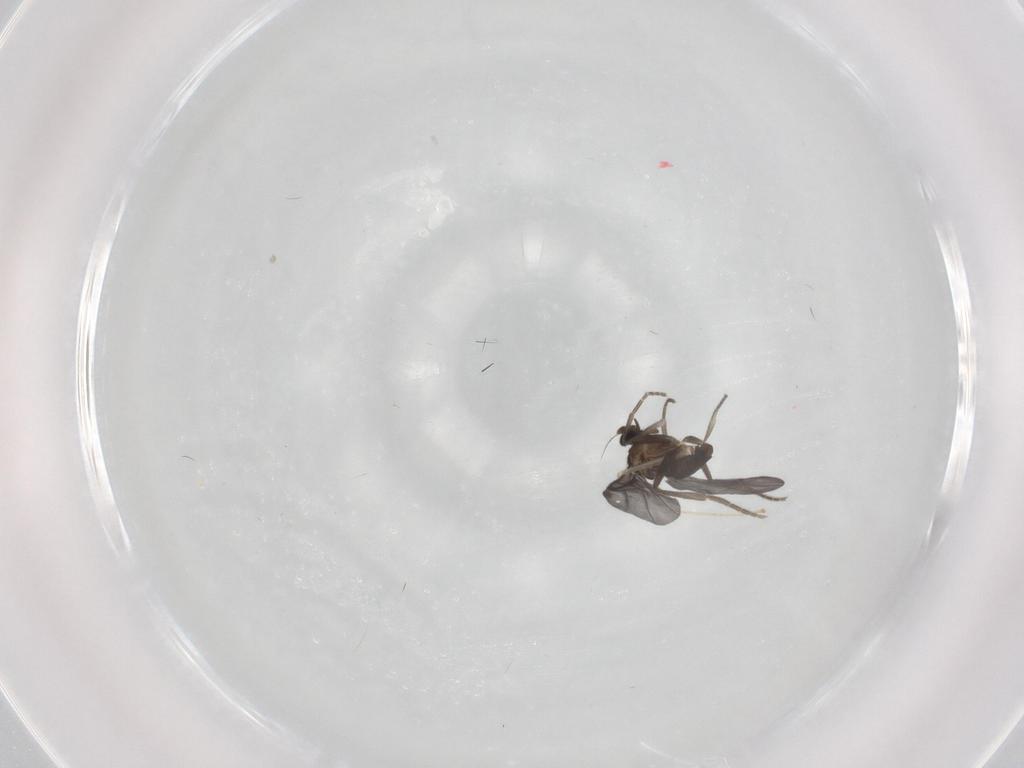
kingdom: Animalia
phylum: Arthropoda
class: Insecta
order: Diptera
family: Cecidomyiidae
